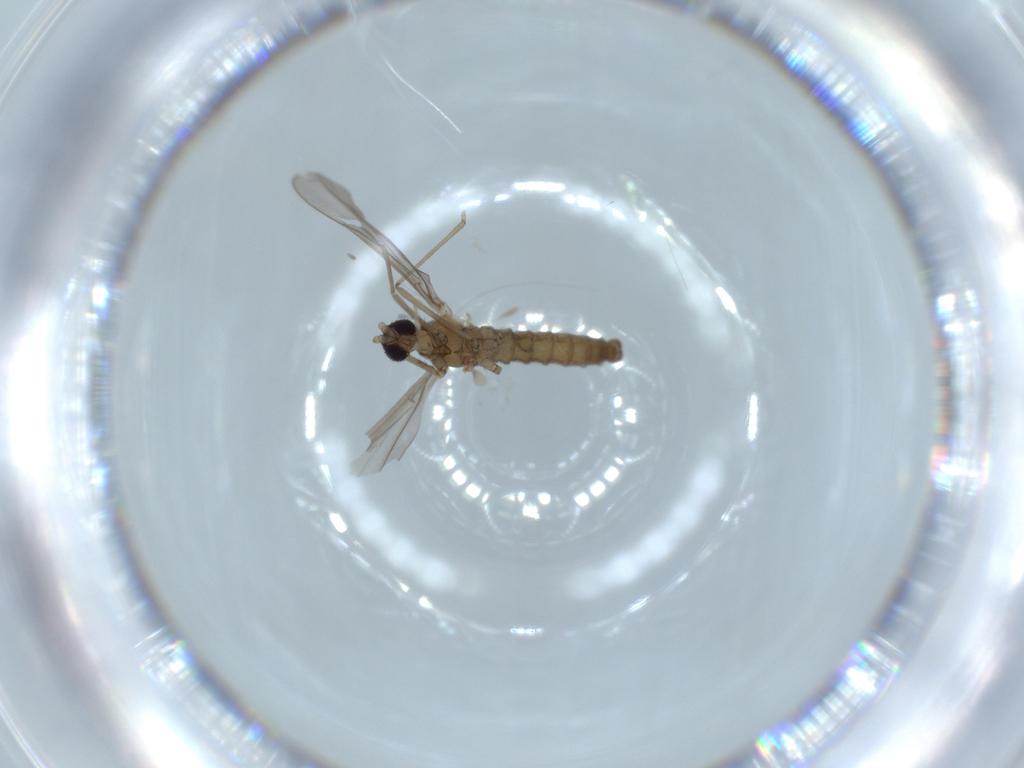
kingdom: Animalia
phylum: Arthropoda
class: Insecta
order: Diptera
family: Cecidomyiidae
